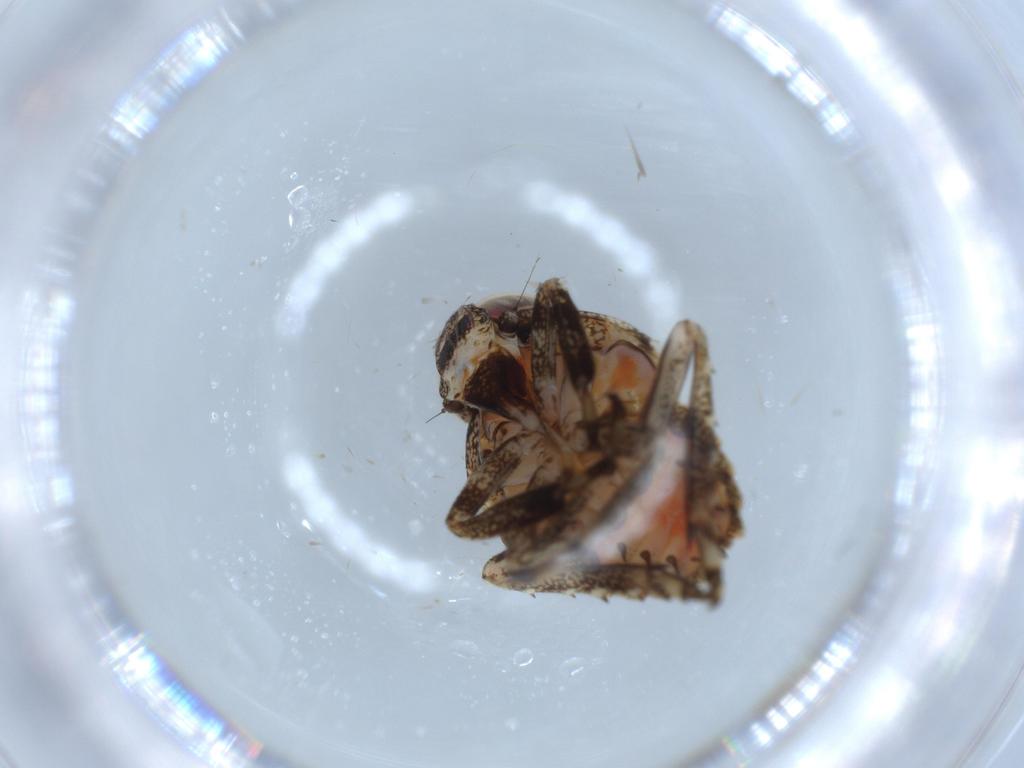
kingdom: Animalia
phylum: Arthropoda
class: Insecta
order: Hemiptera
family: Issidae
